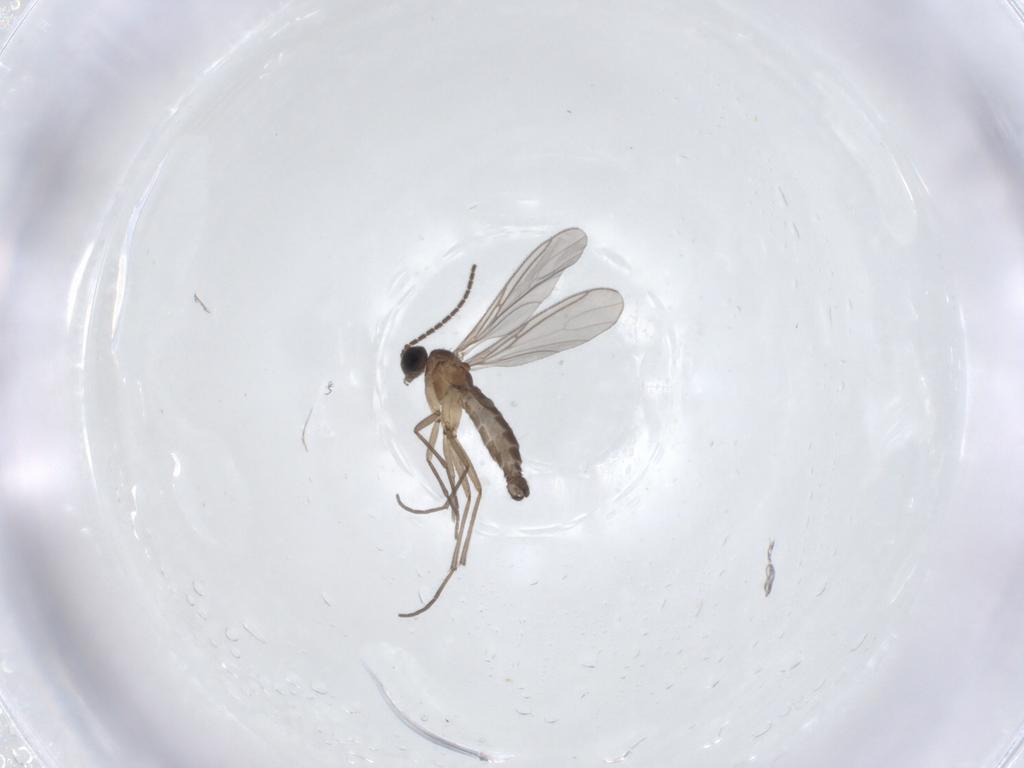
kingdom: Animalia
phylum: Arthropoda
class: Insecta
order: Diptera
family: Sciaridae
